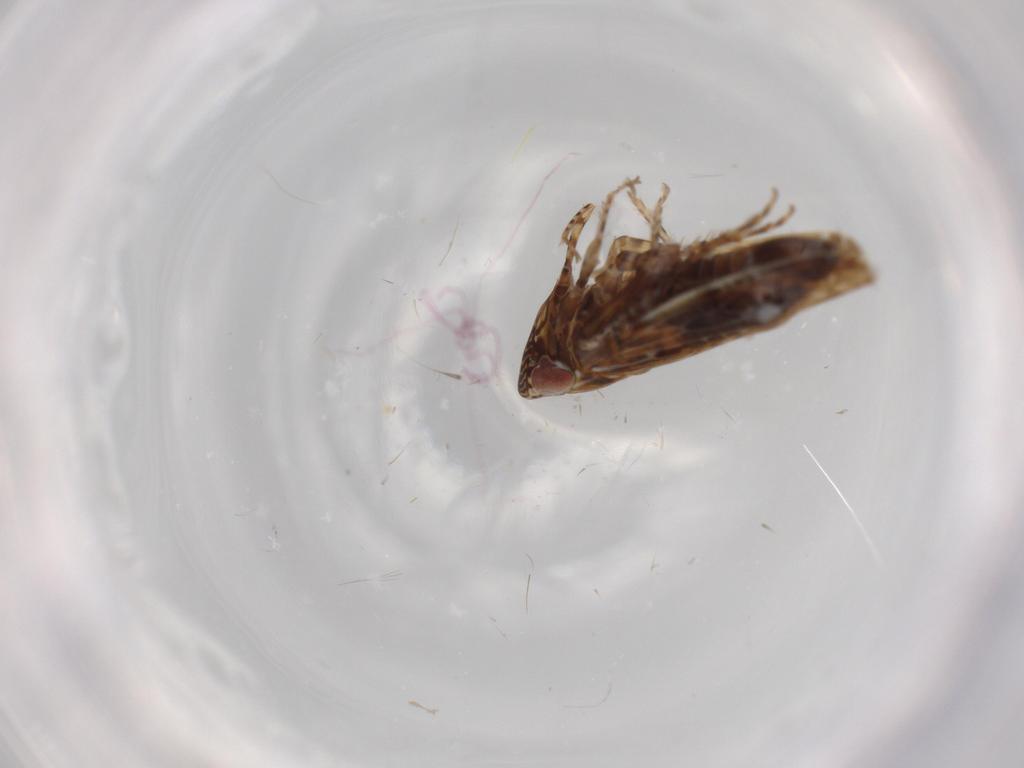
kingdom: Animalia
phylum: Arthropoda
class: Insecta
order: Hemiptera
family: Cicadellidae
